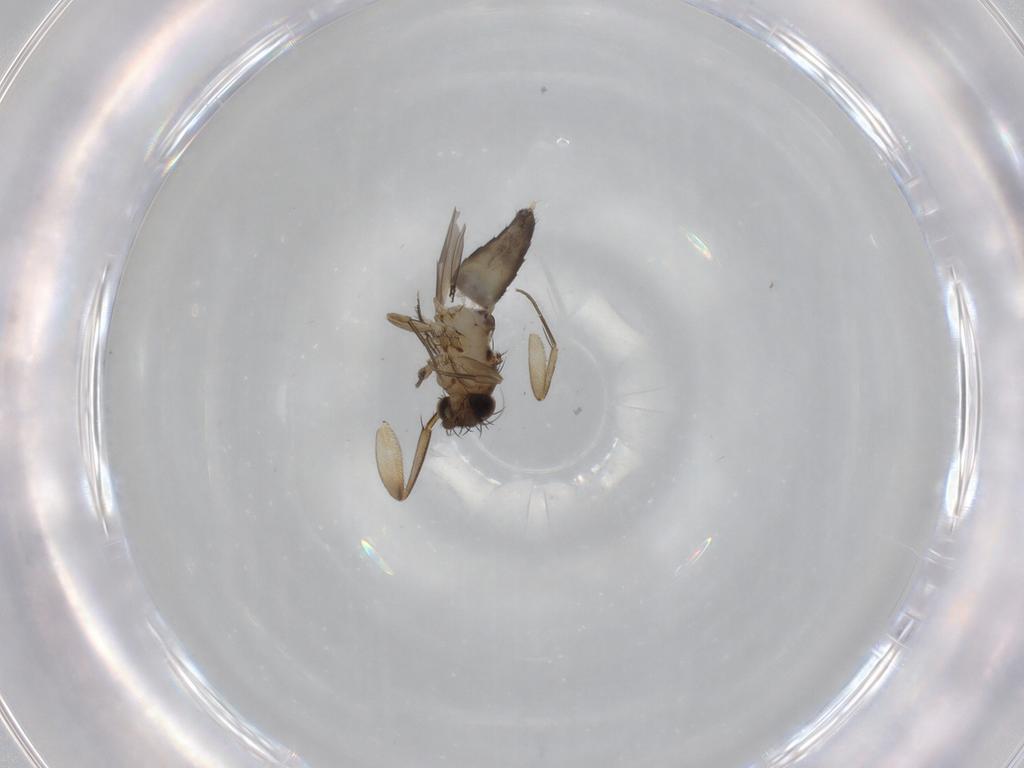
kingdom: Animalia
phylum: Arthropoda
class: Insecta
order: Diptera
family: Phoridae
